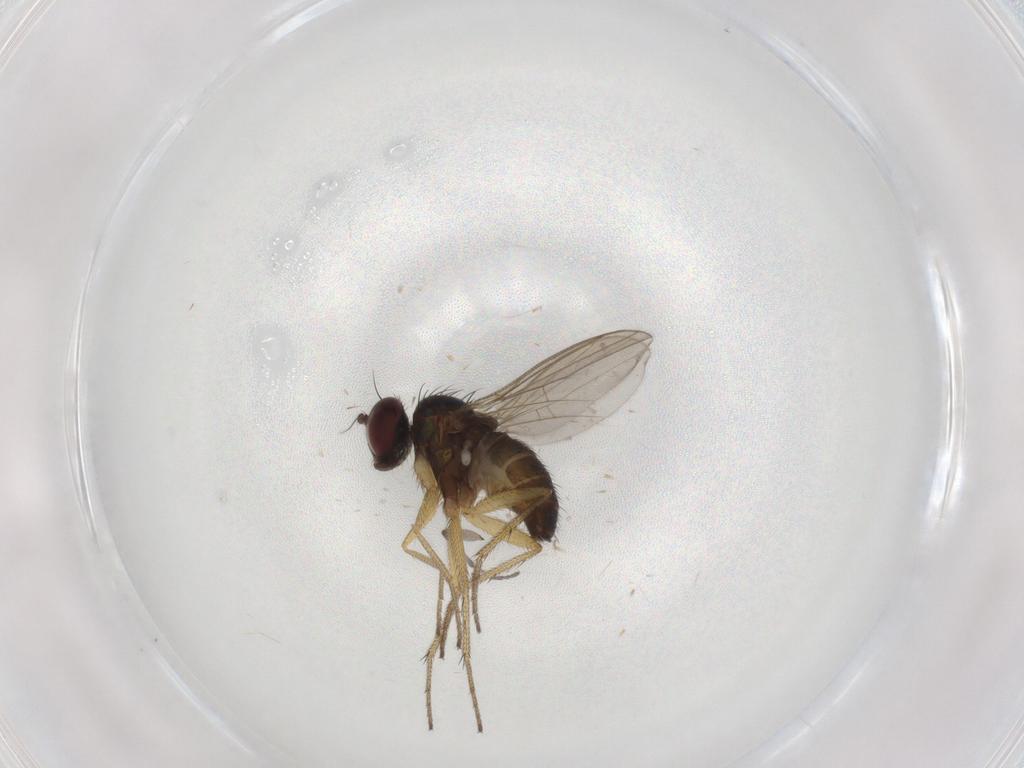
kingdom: Animalia
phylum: Arthropoda
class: Insecta
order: Diptera
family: Sciaridae
